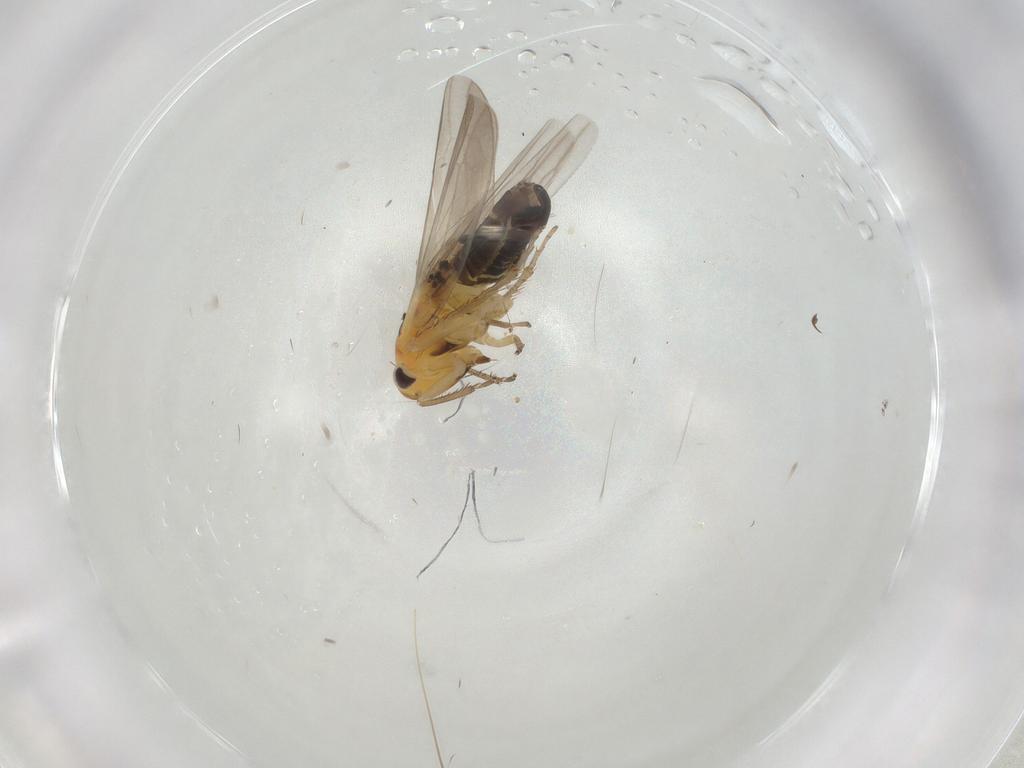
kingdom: Animalia
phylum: Arthropoda
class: Insecta
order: Hemiptera
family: Cicadellidae
